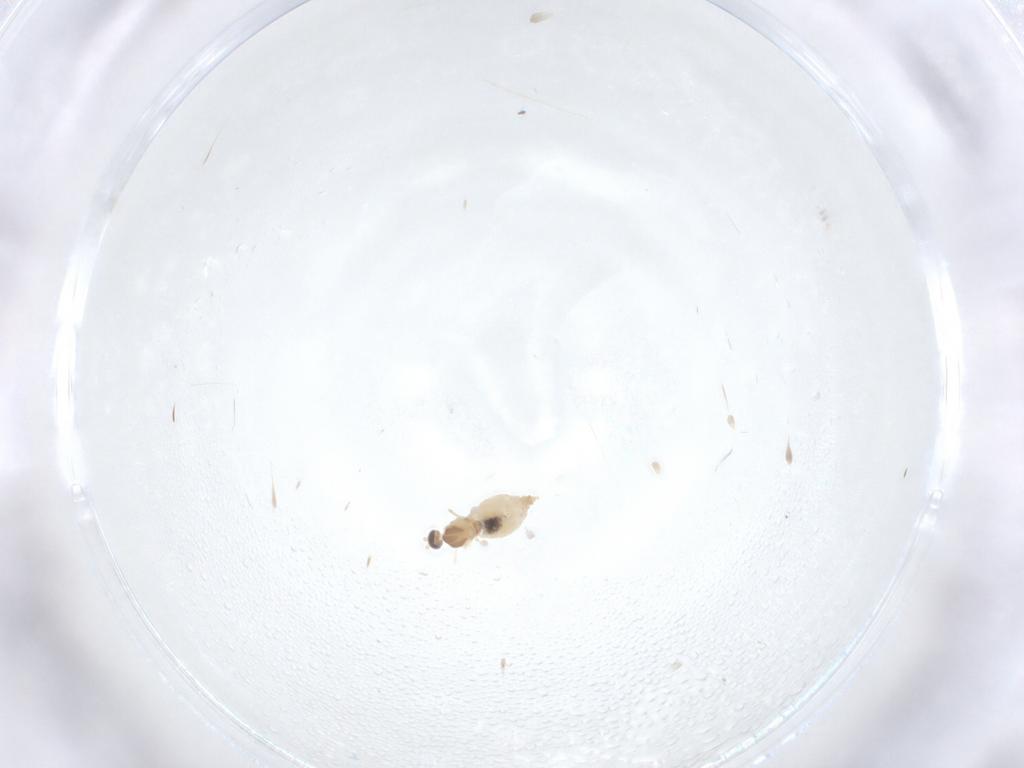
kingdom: Animalia
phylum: Arthropoda
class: Insecta
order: Diptera
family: Cecidomyiidae
